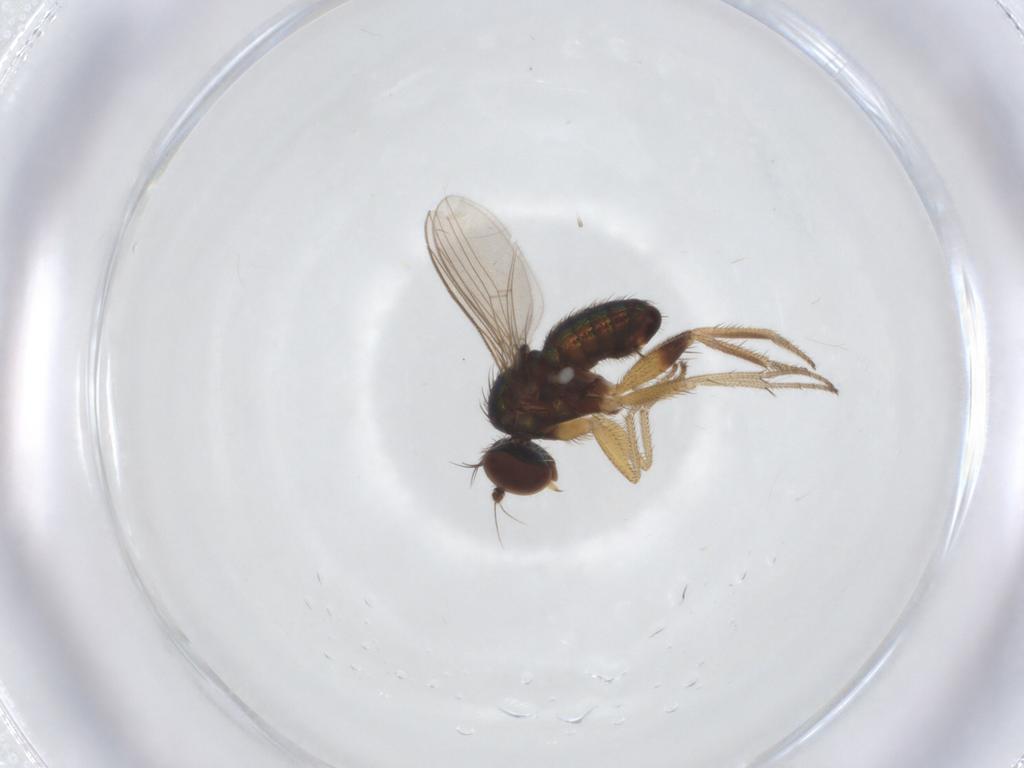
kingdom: Animalia
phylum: Arthropoda
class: Insecta
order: Diptera
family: Dolichopodidae
